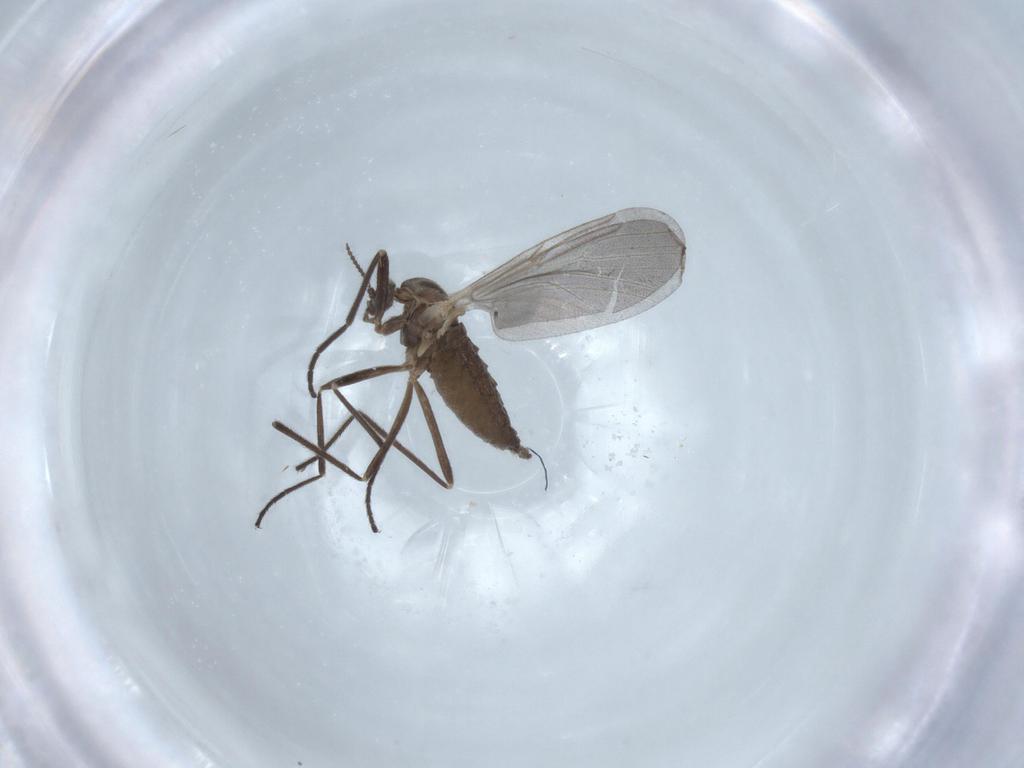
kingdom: Animalia
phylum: Arthropoda
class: Insecta
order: Diptera
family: Cecidomyiidae
